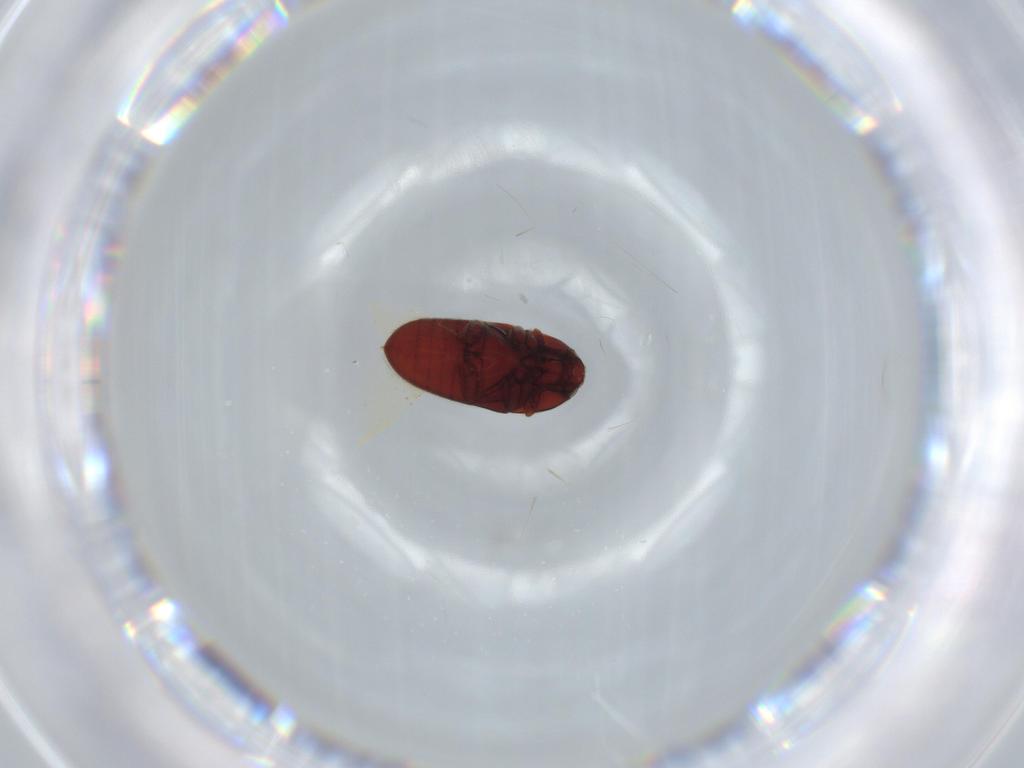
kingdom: Animalia
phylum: Arthropoda
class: Insecta
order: Coleoptera
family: Throscidae
